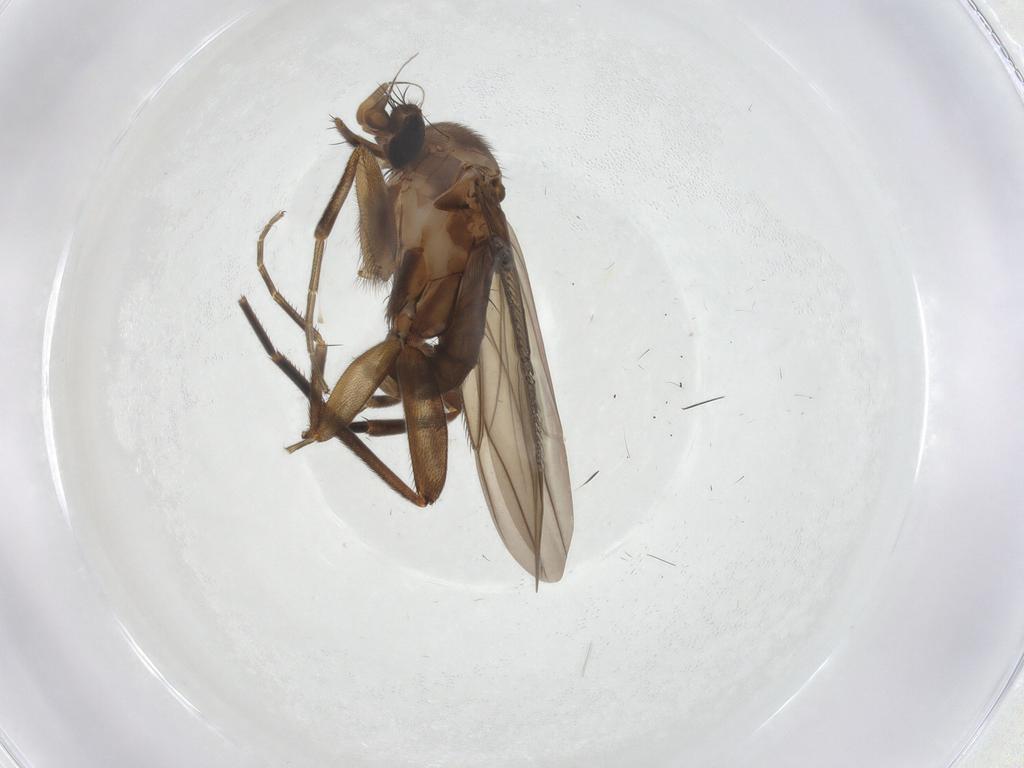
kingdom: Animalia
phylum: Arthropoda
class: Insecta
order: Diptera
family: Phoridae
